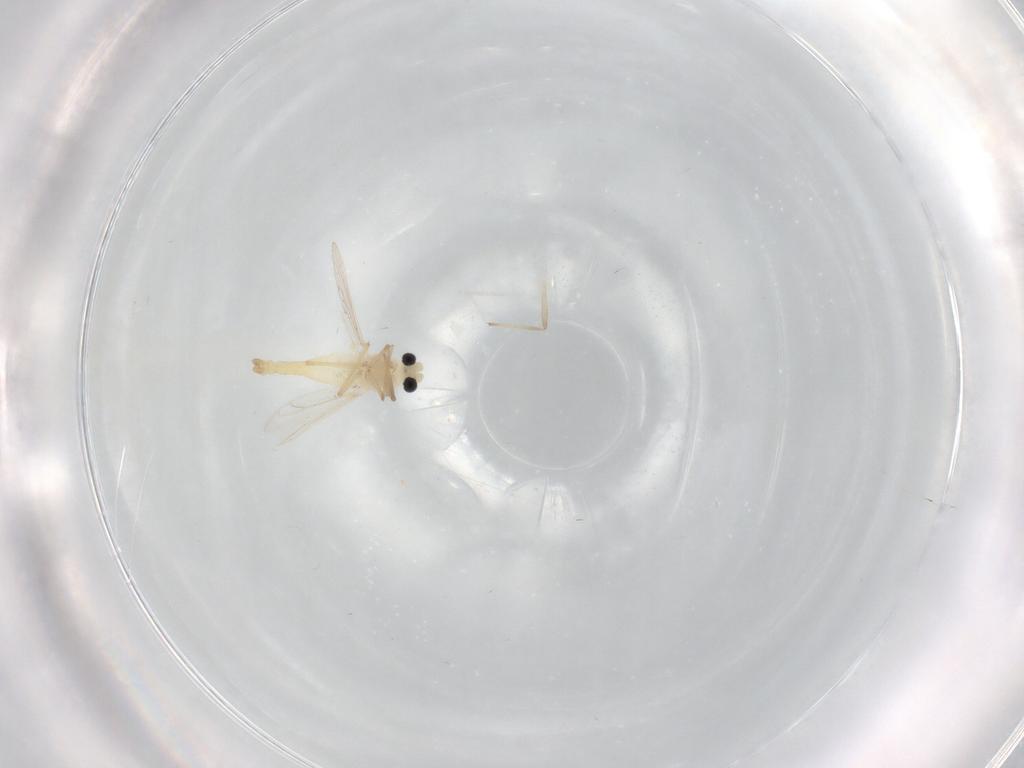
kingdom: Animalia
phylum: Arthropoda
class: Insecta
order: Diptera
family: Chironomidae
